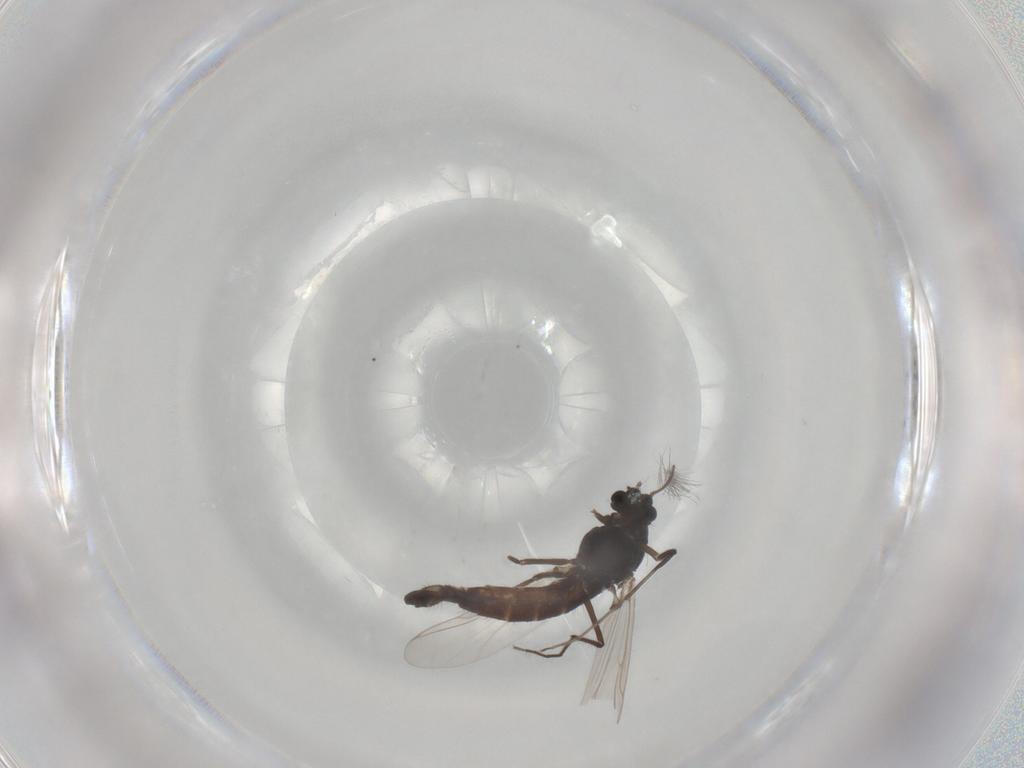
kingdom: Animalia
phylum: Arthropoda
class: Insecta
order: Diptera
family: Chironomidae
